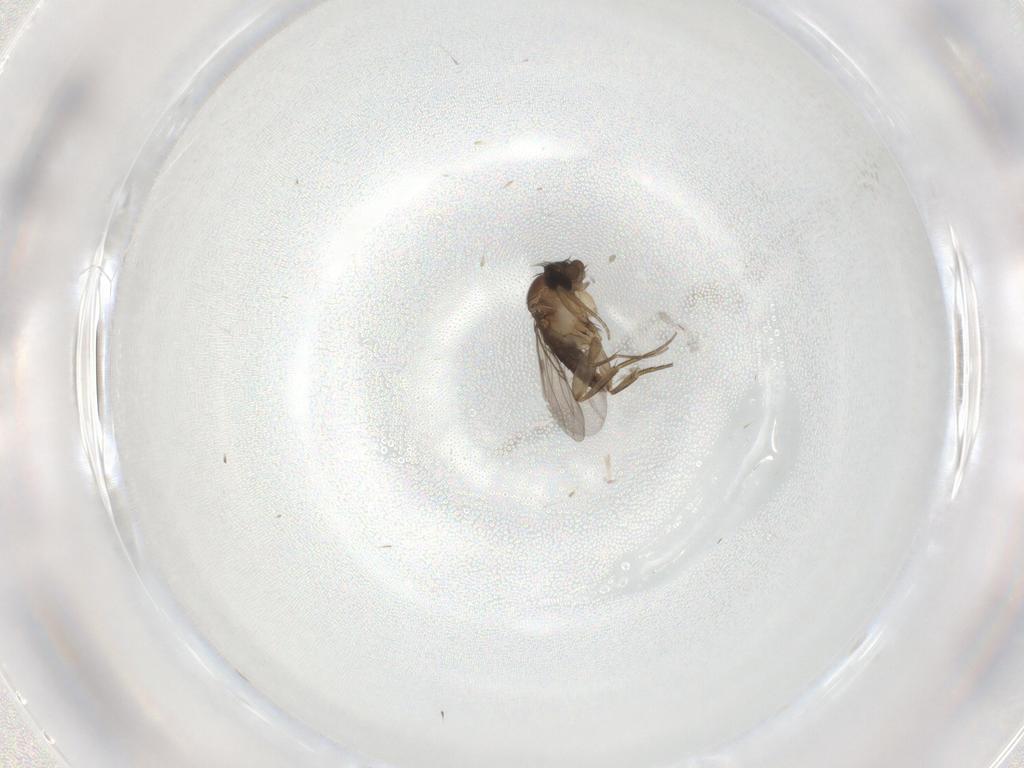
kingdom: Animalia
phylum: Arthropoda
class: Insecta
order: Diptera
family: Phoridae
